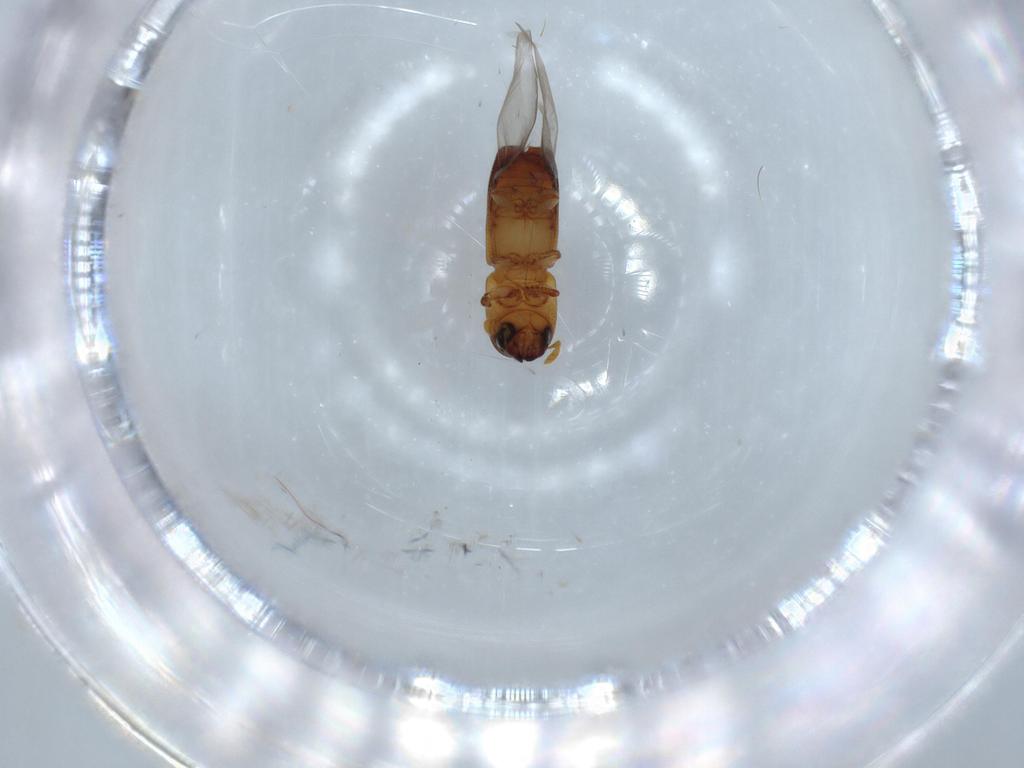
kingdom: Animalia
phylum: Arthropoda
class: Insecta
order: Coleoptera
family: Curculionidae
